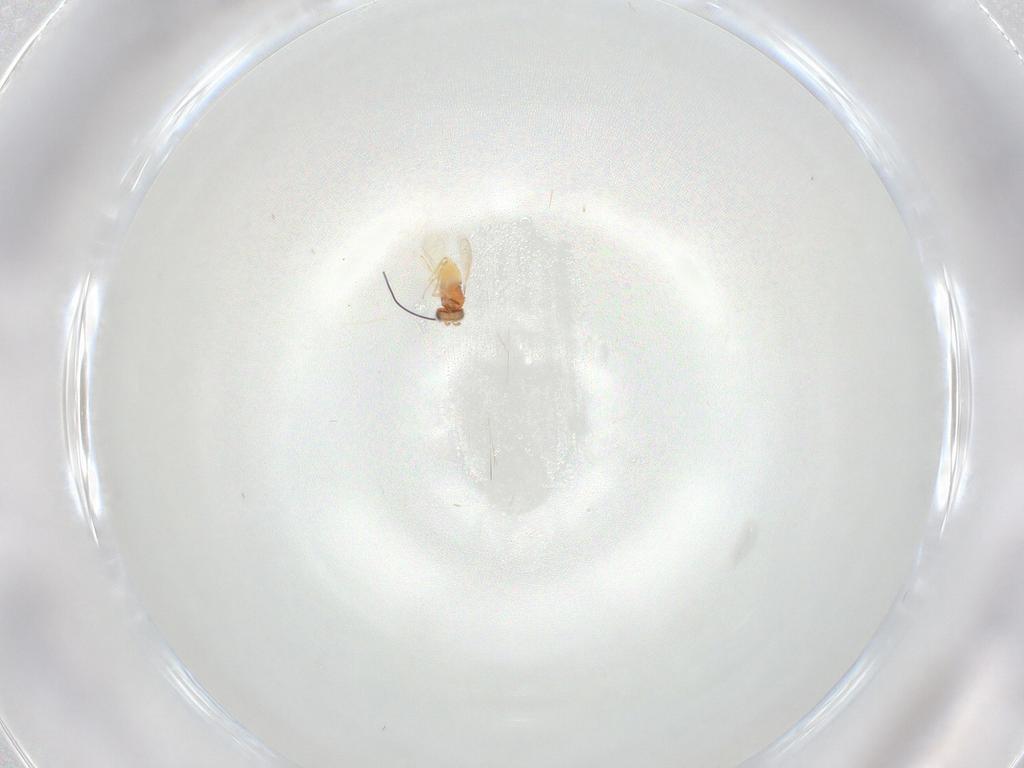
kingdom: Animalia
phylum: Arthropoda
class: Insecta
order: Hymenoptera
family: Aphelinidae
